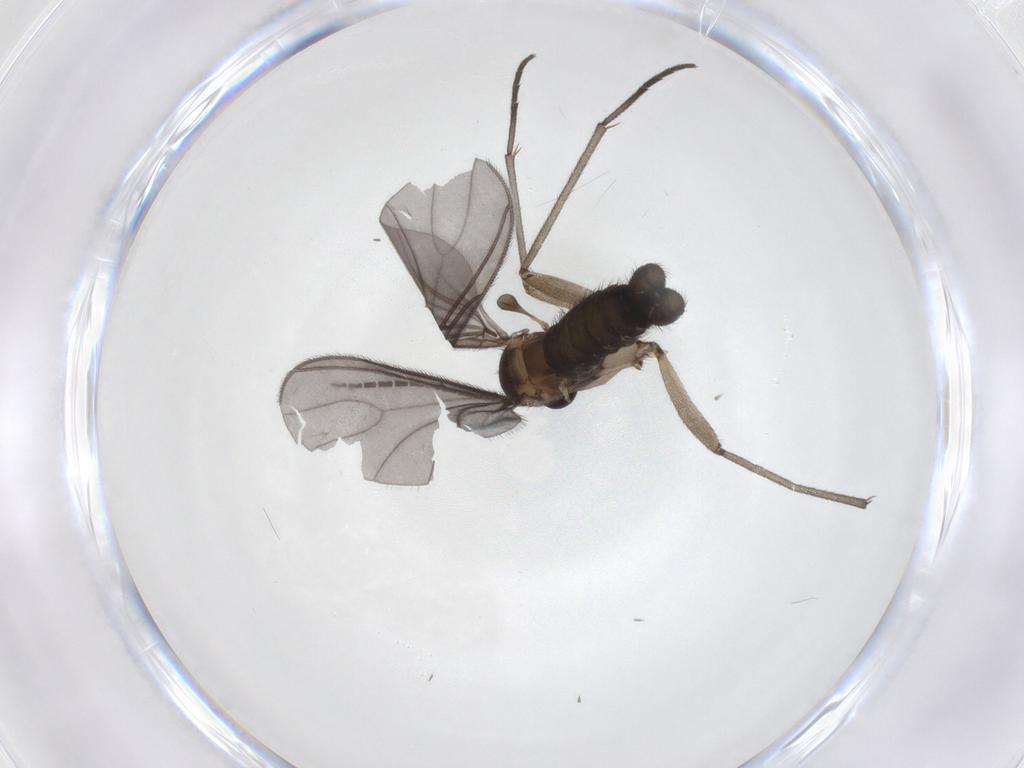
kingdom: Animalia
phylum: Arthropoda
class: Insecta
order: Diptera
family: Sciaridae
